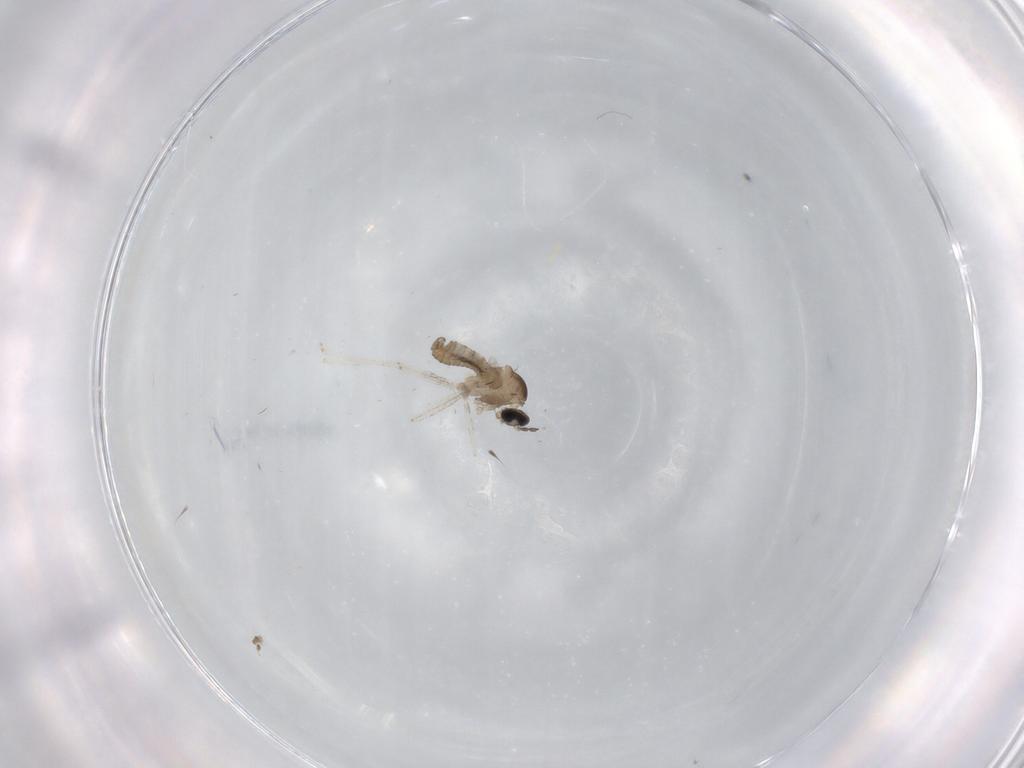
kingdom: Animalia
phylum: Arthropoda
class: Insecta
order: Diptera
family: Cecidomyiidae
